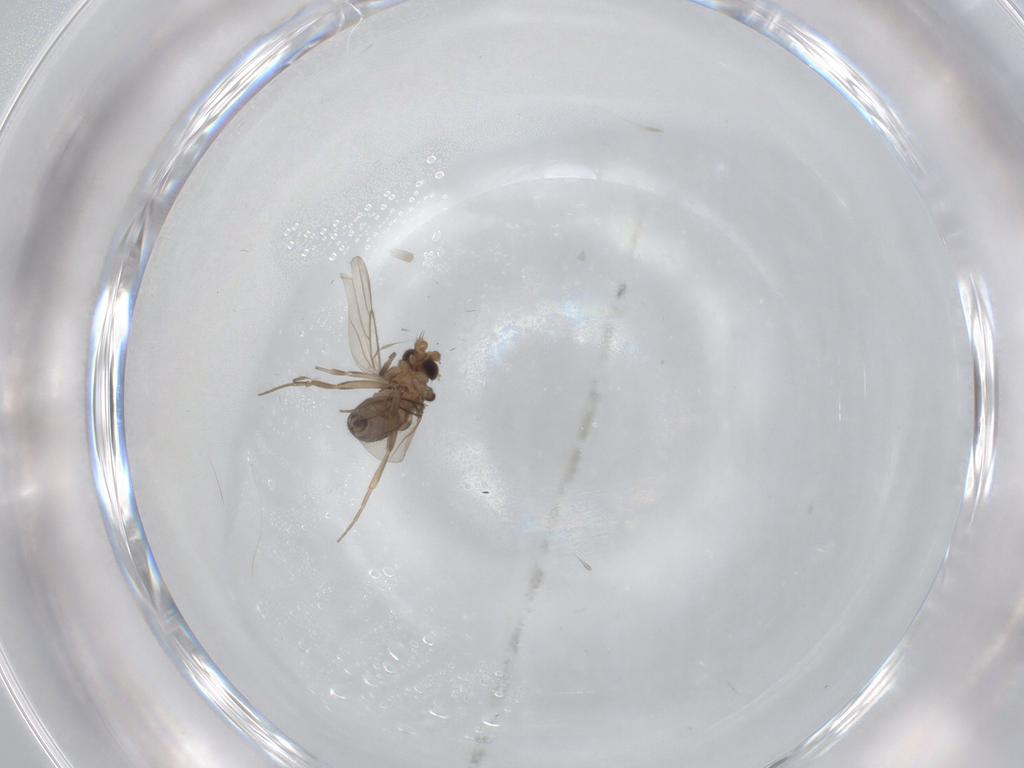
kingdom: Animalia
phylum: Arthropoda
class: Insecta
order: Diptera
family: Phoridae
